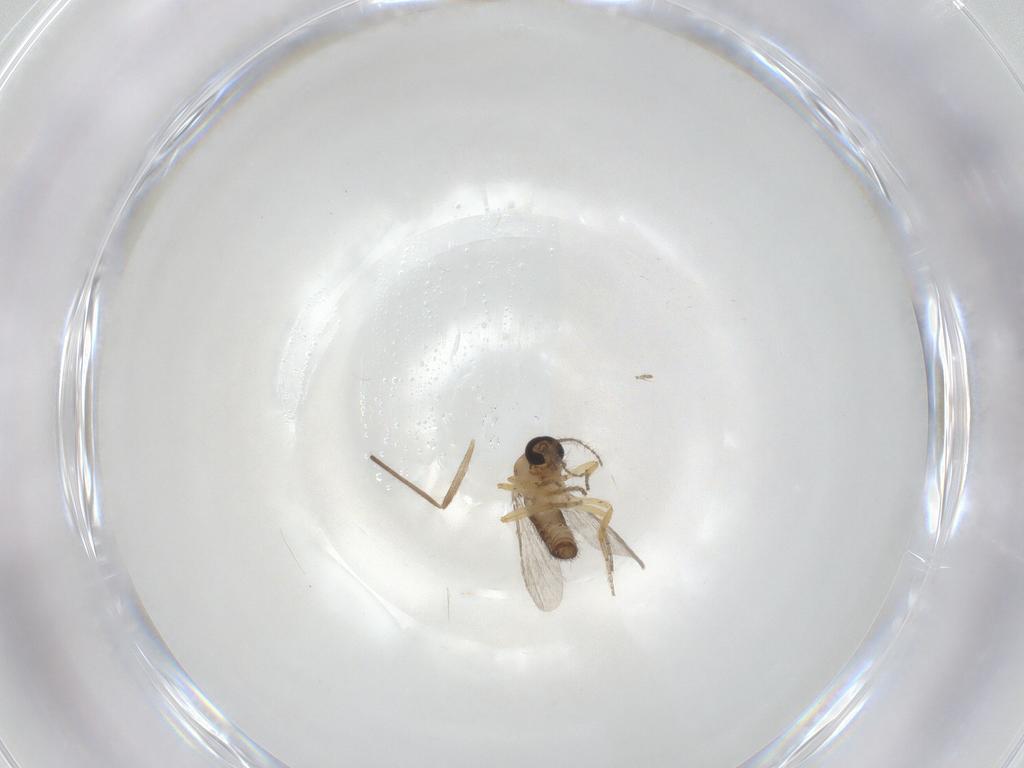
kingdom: Animalia
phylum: Arthropoda
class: Insecta
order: Diptera
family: Ceratopogonidae
